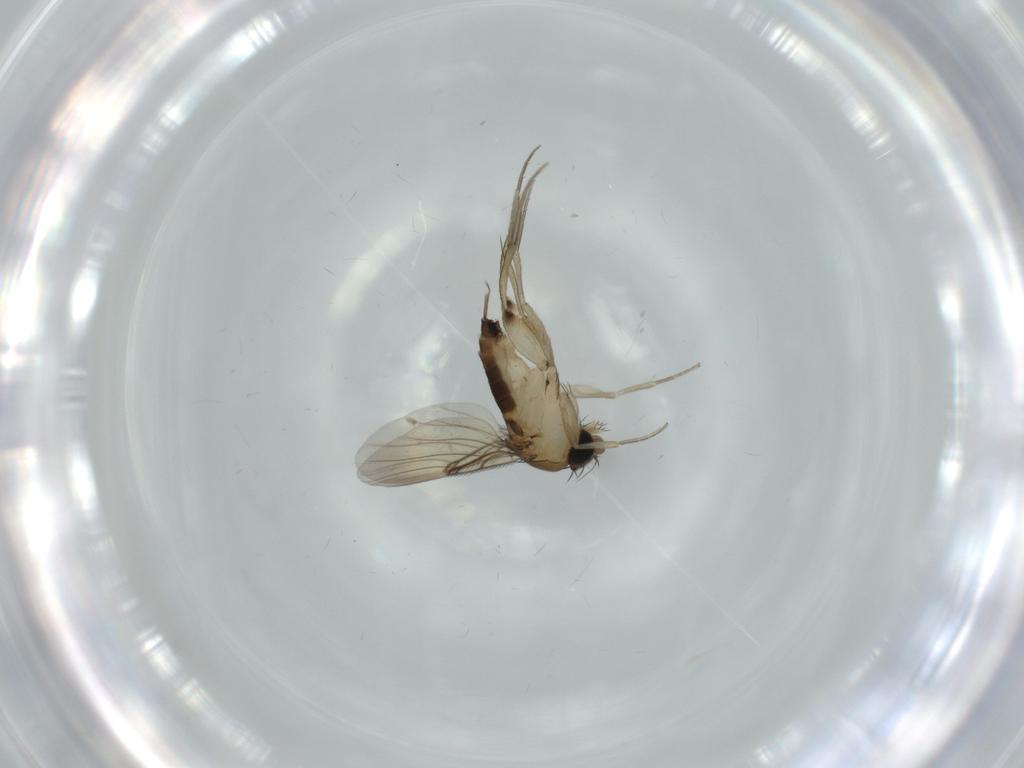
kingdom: Animalia
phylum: Arthropoda
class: Insecta
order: Diptera
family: Phoridae
